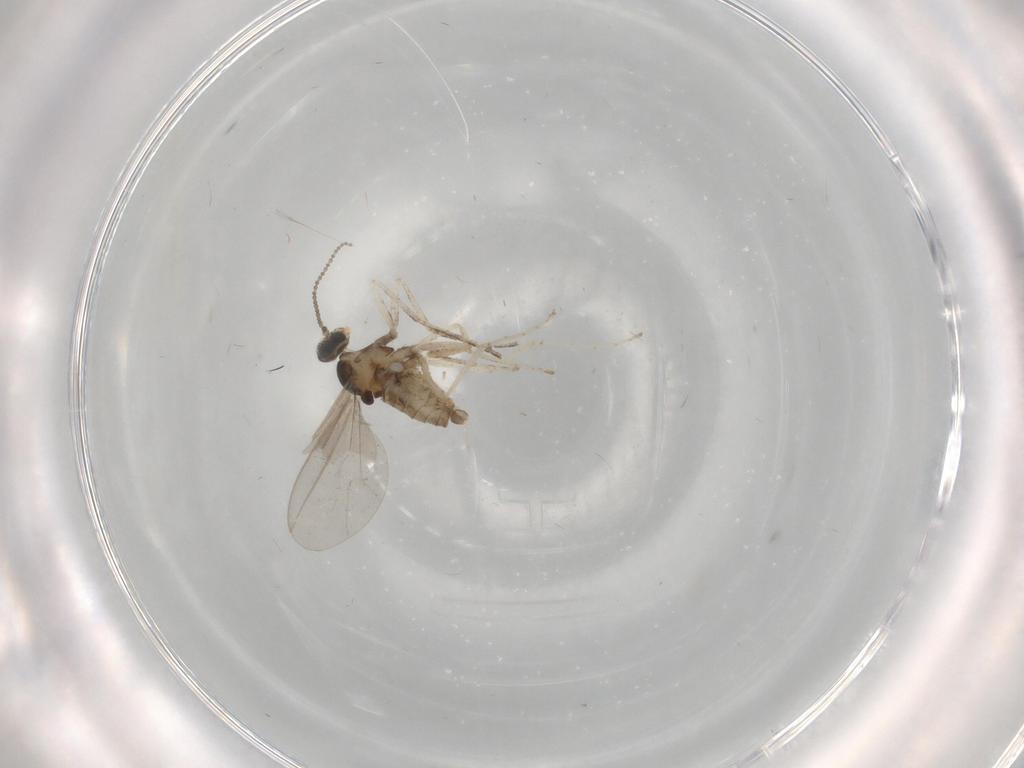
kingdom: Animalia
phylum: Arthropoda
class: Insecta
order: Diptera
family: Cecidomyiidae
